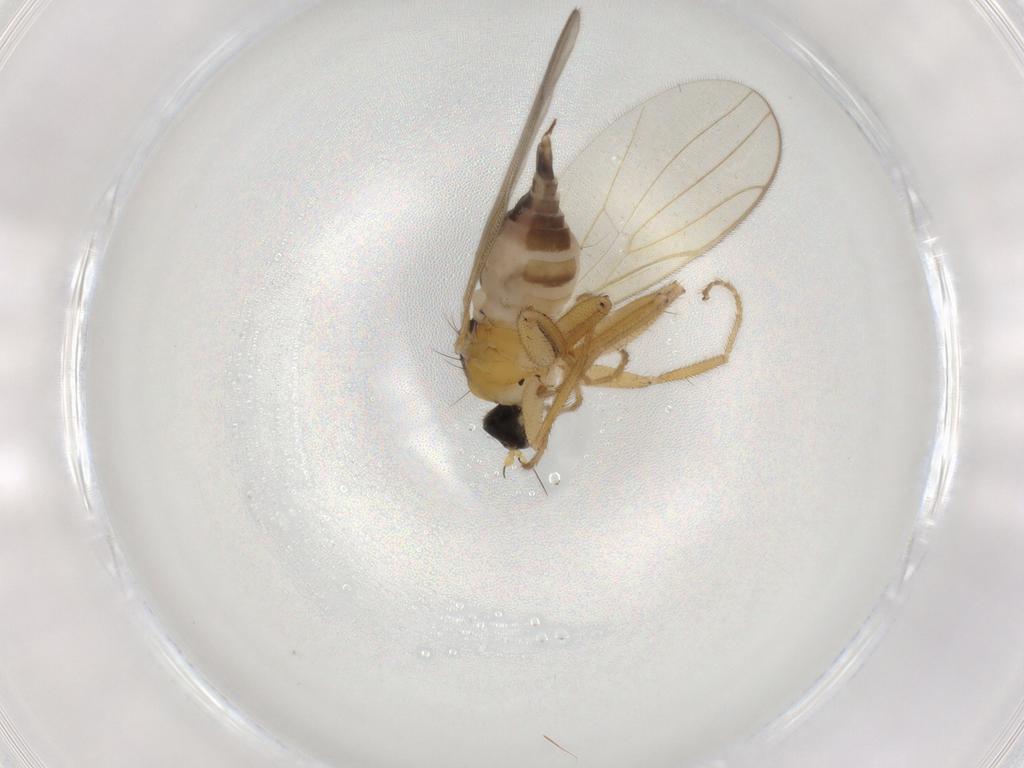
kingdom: Animalia
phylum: Arthropoda
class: Insecta
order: Diptera
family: Chironomidae
